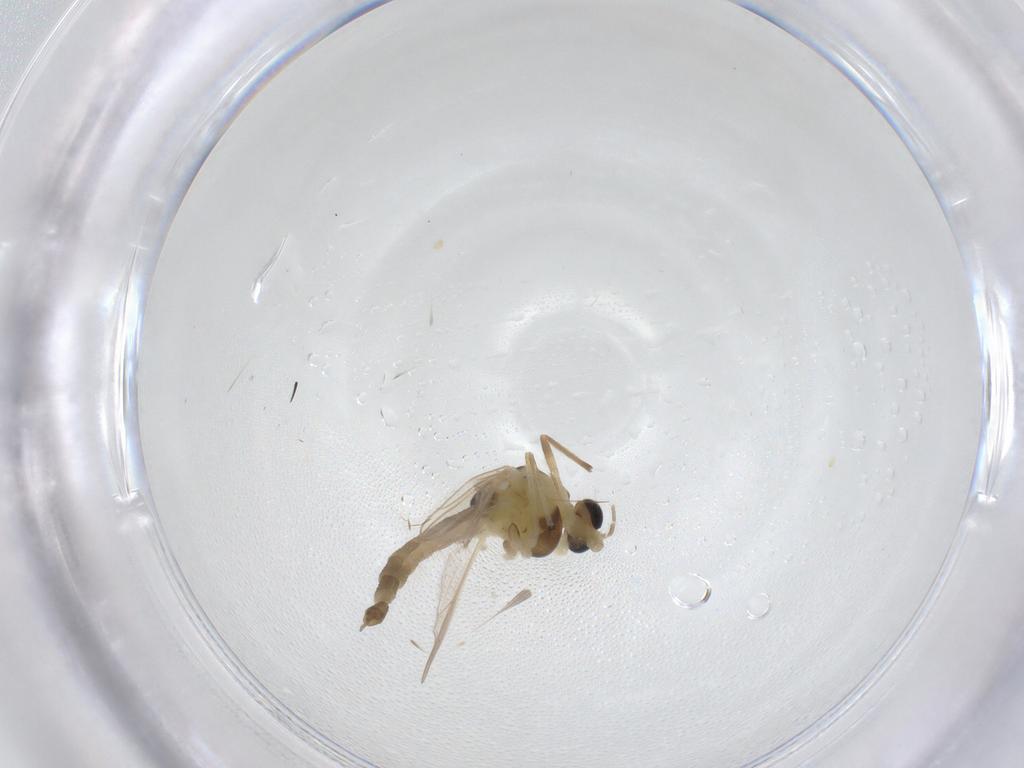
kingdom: Animalia
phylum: Arthropoda
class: Insecta
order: Diptera
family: Chironomidae
